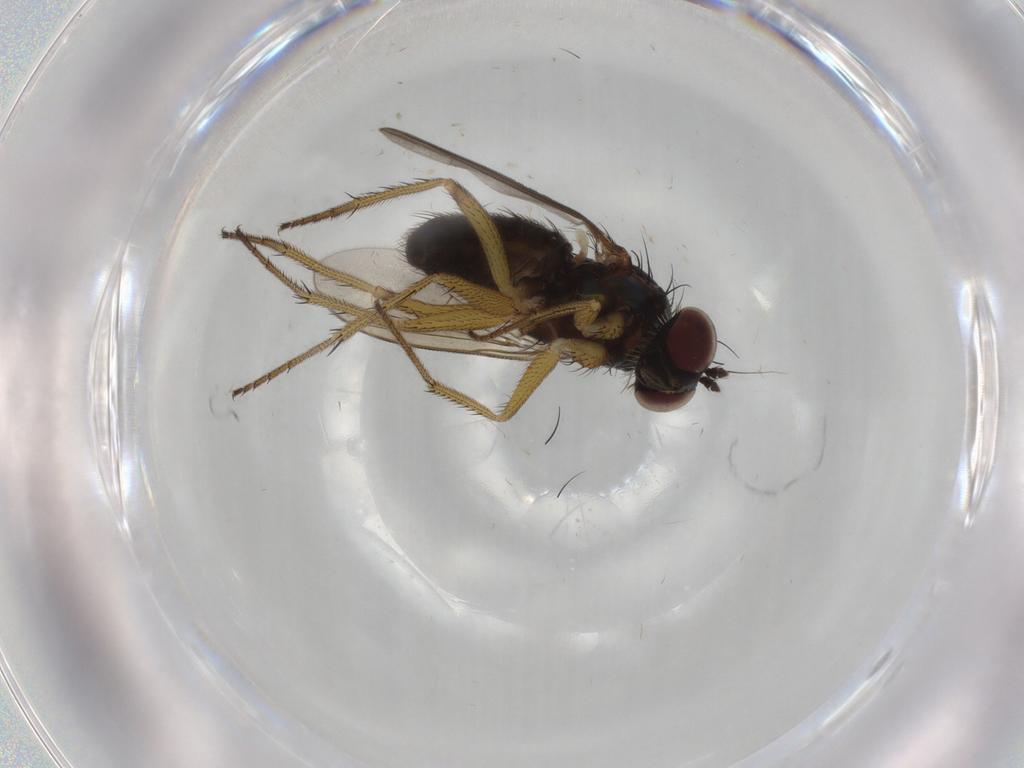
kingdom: Animalia
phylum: Arthropoda
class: Insecta
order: Diptera
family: Dolichopodidae
